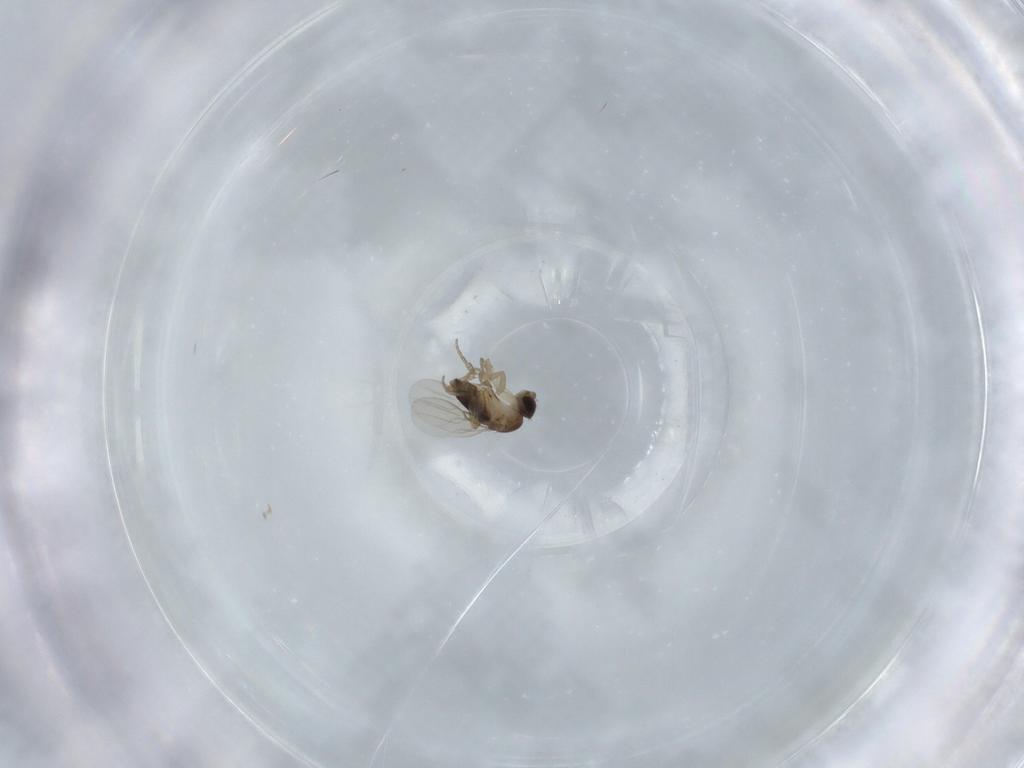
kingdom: Animalia
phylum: Arthropoda
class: Insecta
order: Diptera
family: Phoridae
